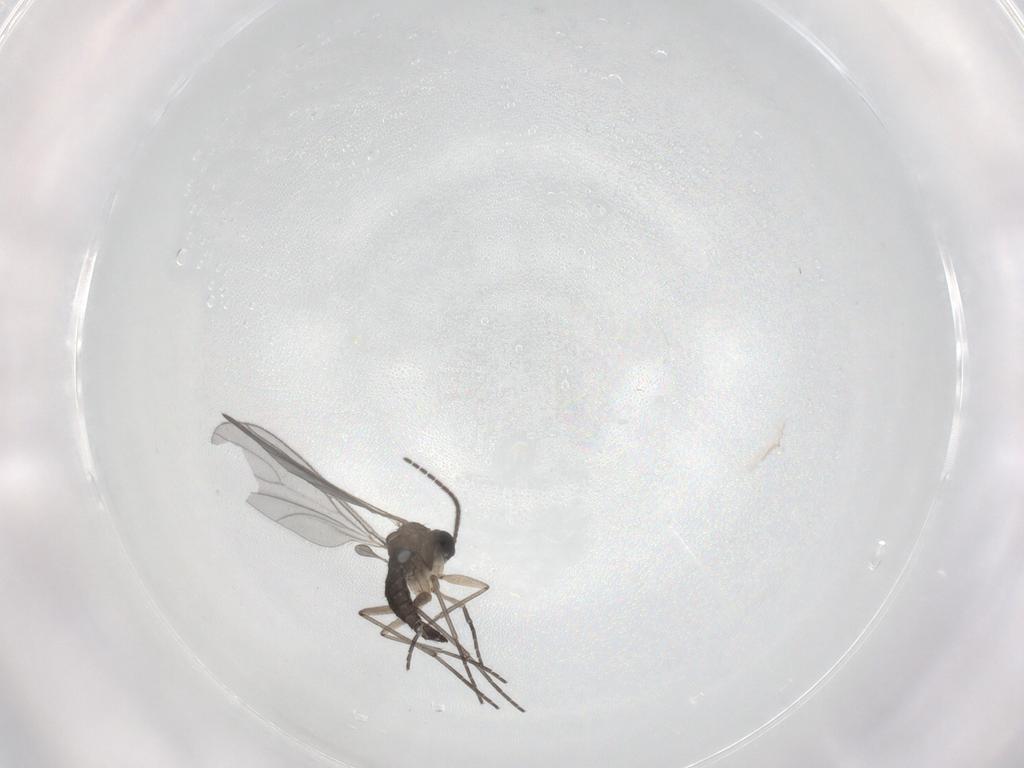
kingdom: Animalia
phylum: Arthropoda
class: Insecta
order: Diptera
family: Sciaridae
